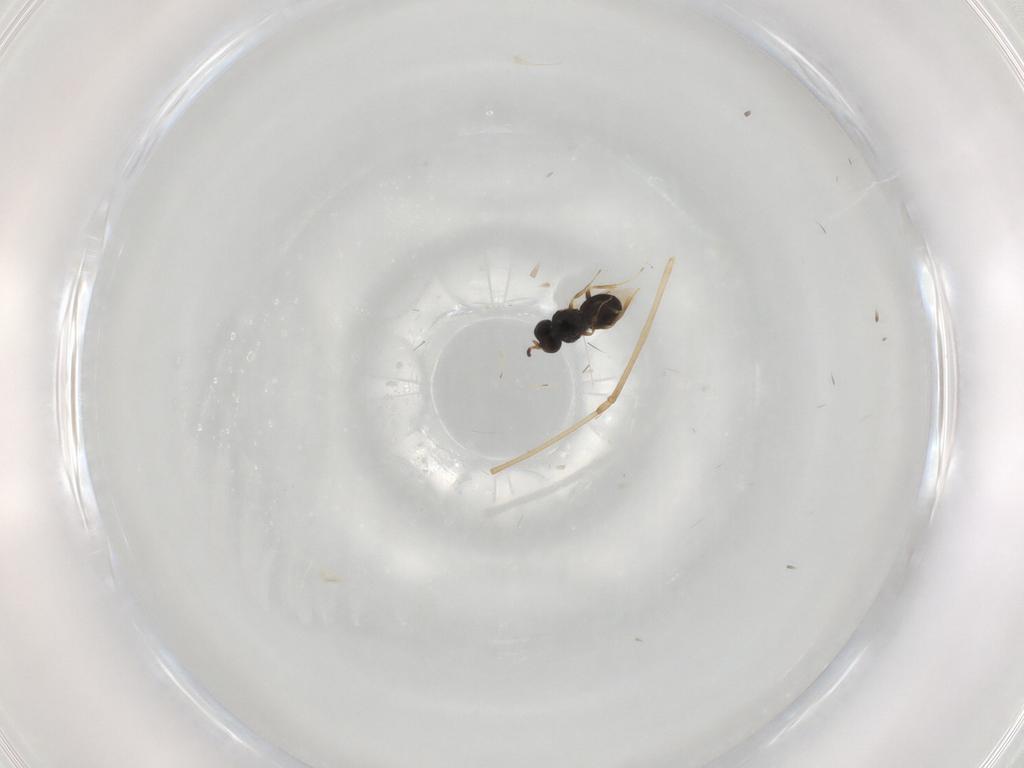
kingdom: Animalia
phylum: Arthropoda
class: Insecta
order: Hymenoptera
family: Scelionidae
